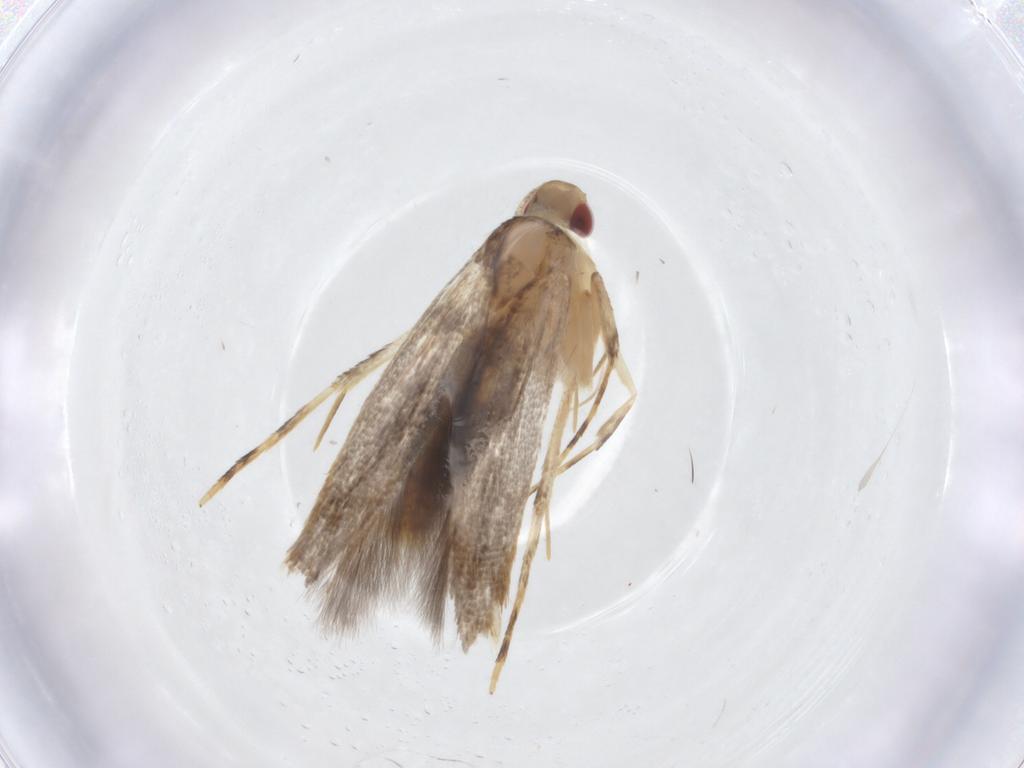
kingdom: Animalia
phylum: Arthropoda
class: Insecta
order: Lepidoptera
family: Cosmopterigidae
